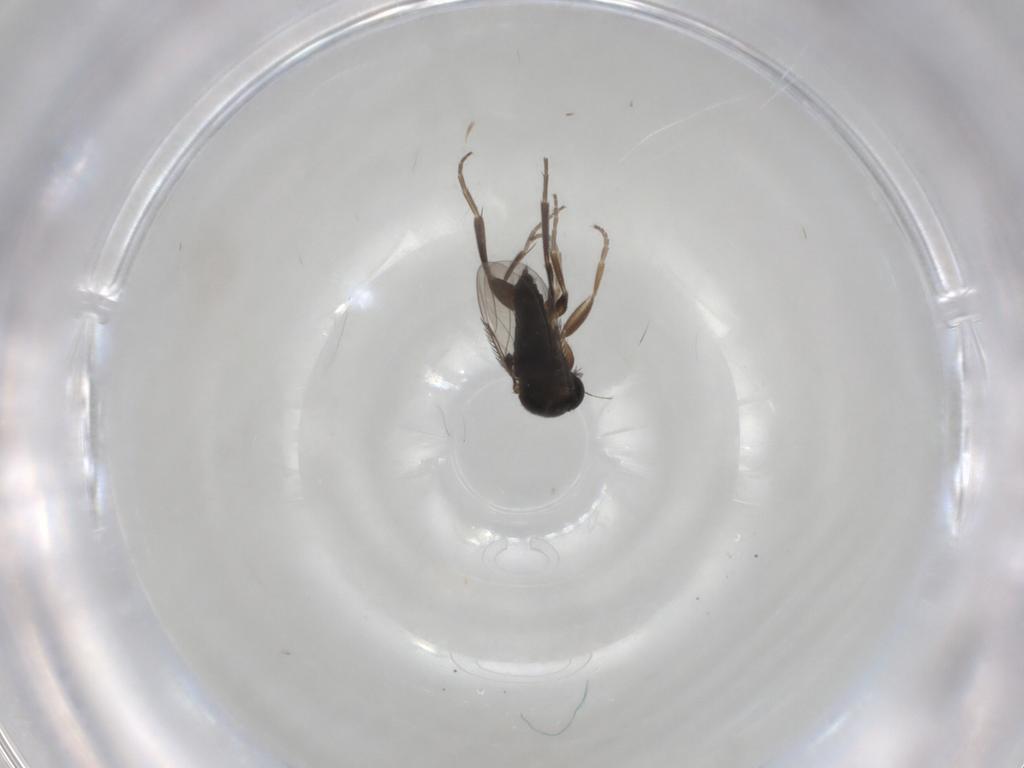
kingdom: Animalia
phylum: Arthropoda
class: Insecta
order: Diptera
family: Phoridae
